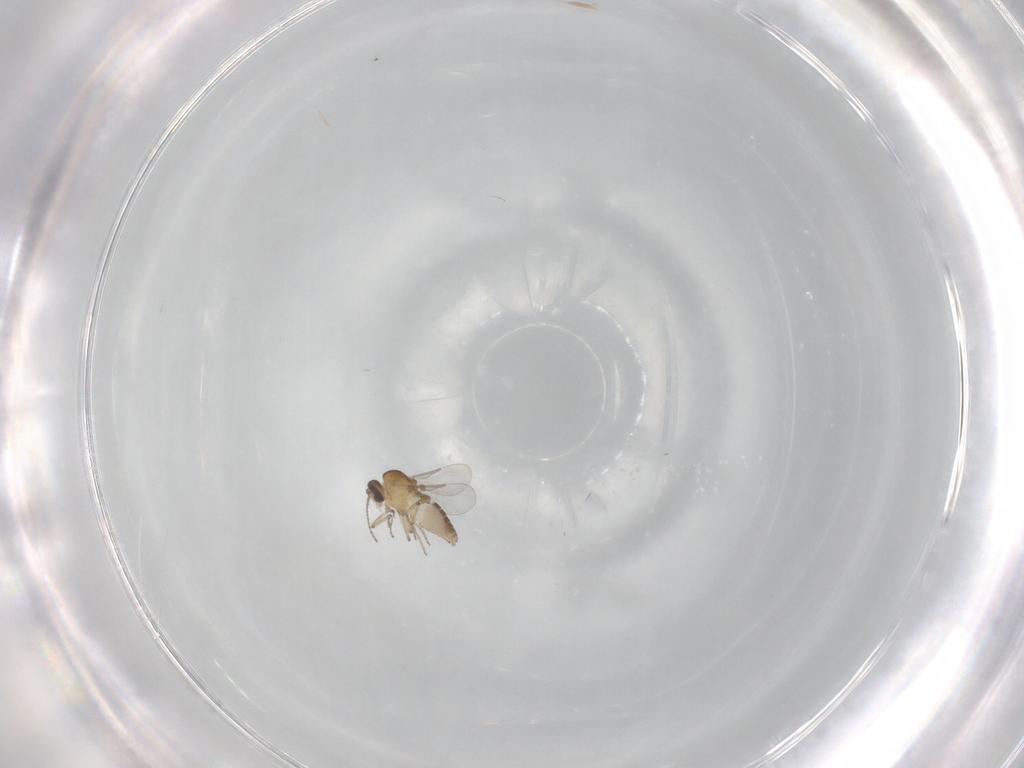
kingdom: Animalia
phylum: Arthropoda
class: Insecta
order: Diptera
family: Ceratopogonidae
